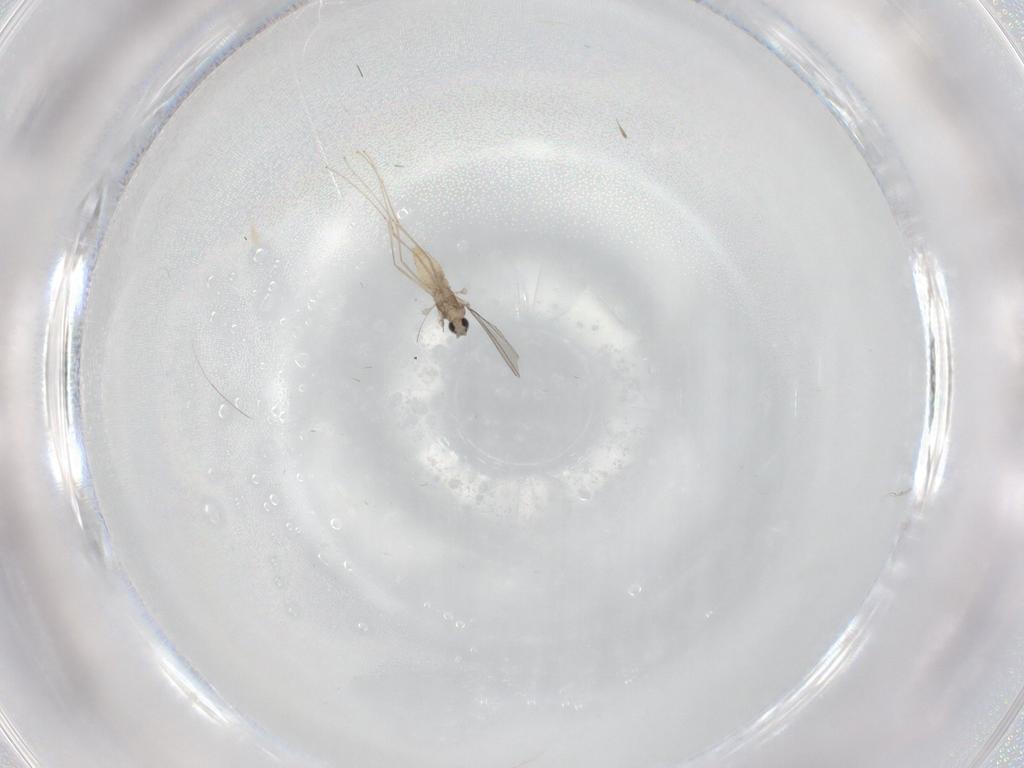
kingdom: Animalia
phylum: Arthropoda
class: Insecta
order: Diptera
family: Cecidomyiidae
